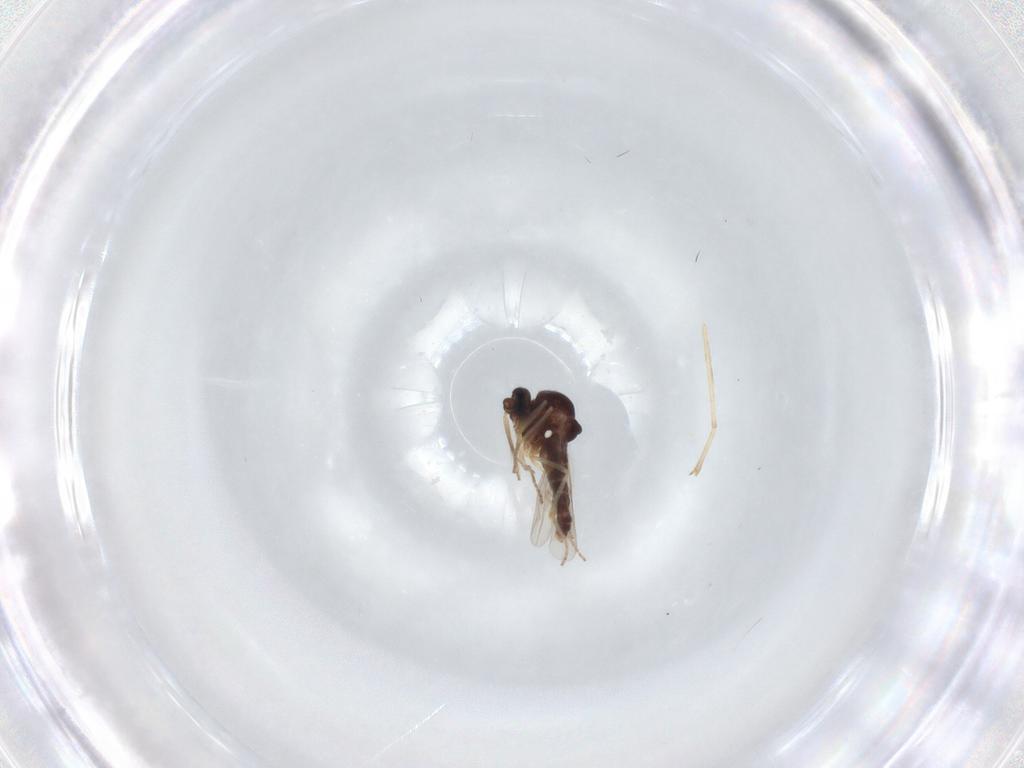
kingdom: Animalia
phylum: Arthropoda
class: Insecta
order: Diptera
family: Ceratopogonidae
